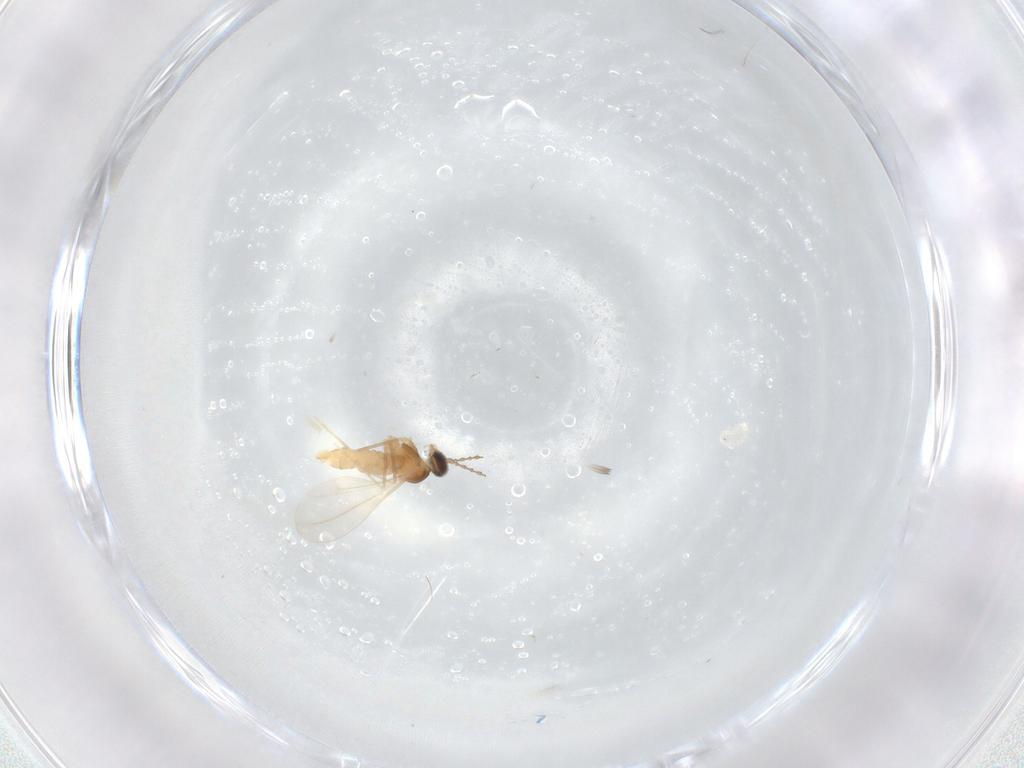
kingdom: Animalia
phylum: Arthropoda
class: Insecta
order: Diptera
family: Cecidomyiidae
